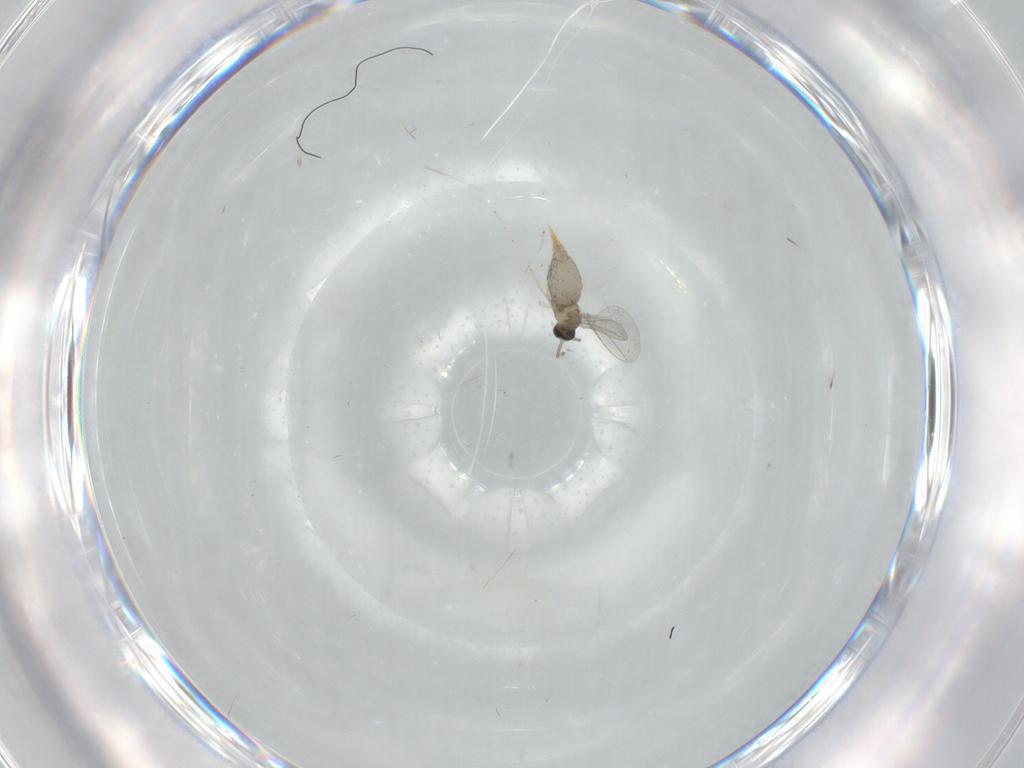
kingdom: Animalia
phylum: Arthropoda
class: Insecta
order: Diptera
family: Cecidomyiidae
